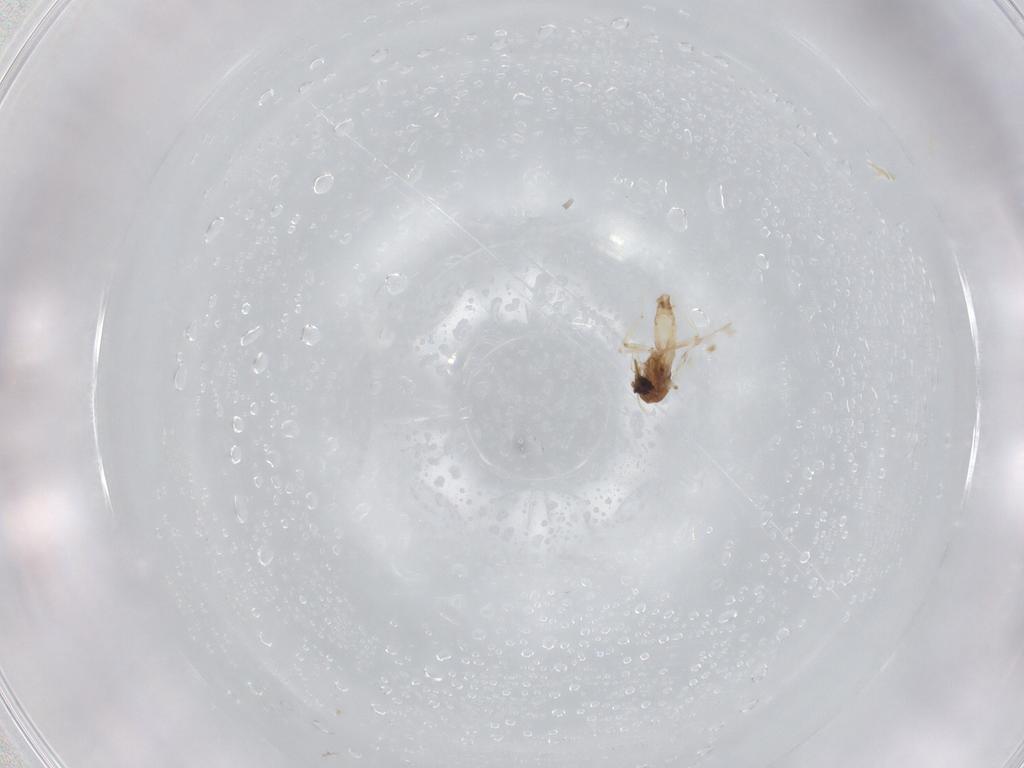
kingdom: Animalia
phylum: Arthropoda
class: Insecta
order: Diptera
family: Ceratopogonidae
